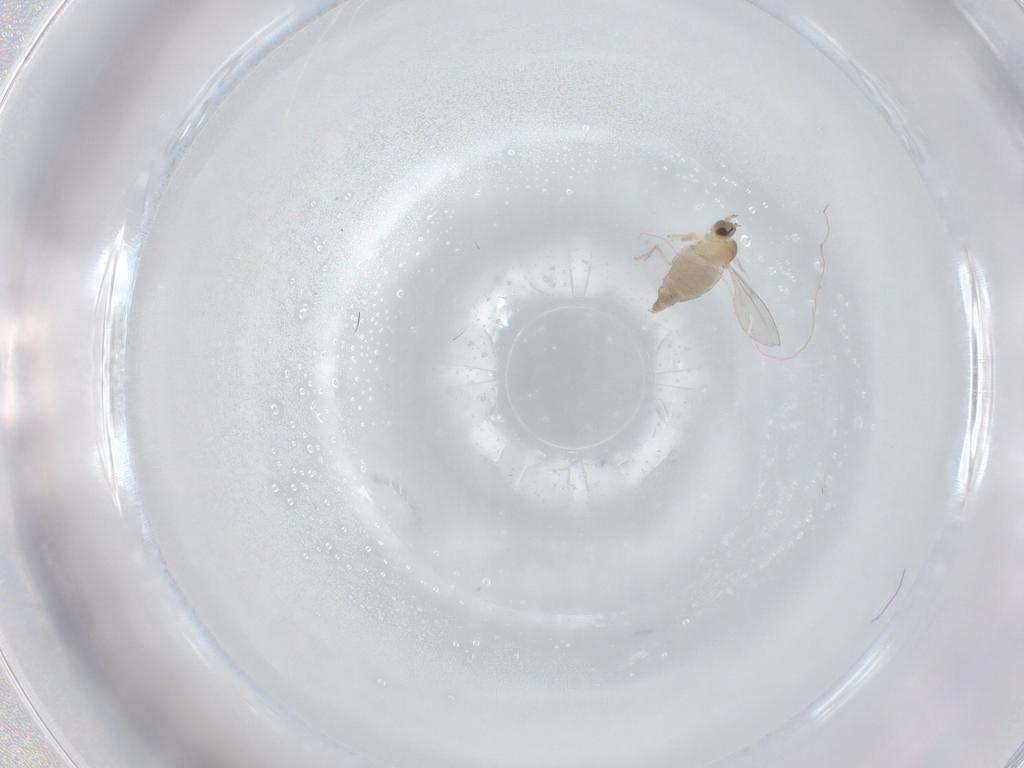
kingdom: Animalia
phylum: Arthropoda
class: Insecta
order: Diptera
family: Cecidomyiidae
